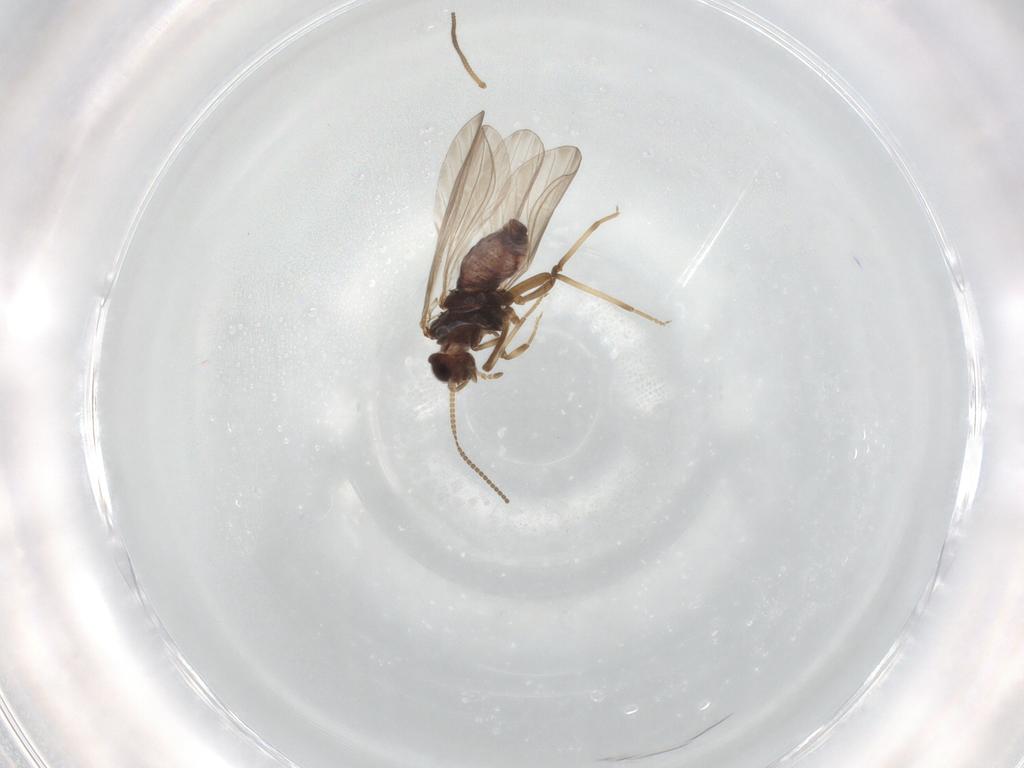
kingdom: Animalia
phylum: Arthropoda
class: Insecta
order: Neuroptera
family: Coniopterygidae
